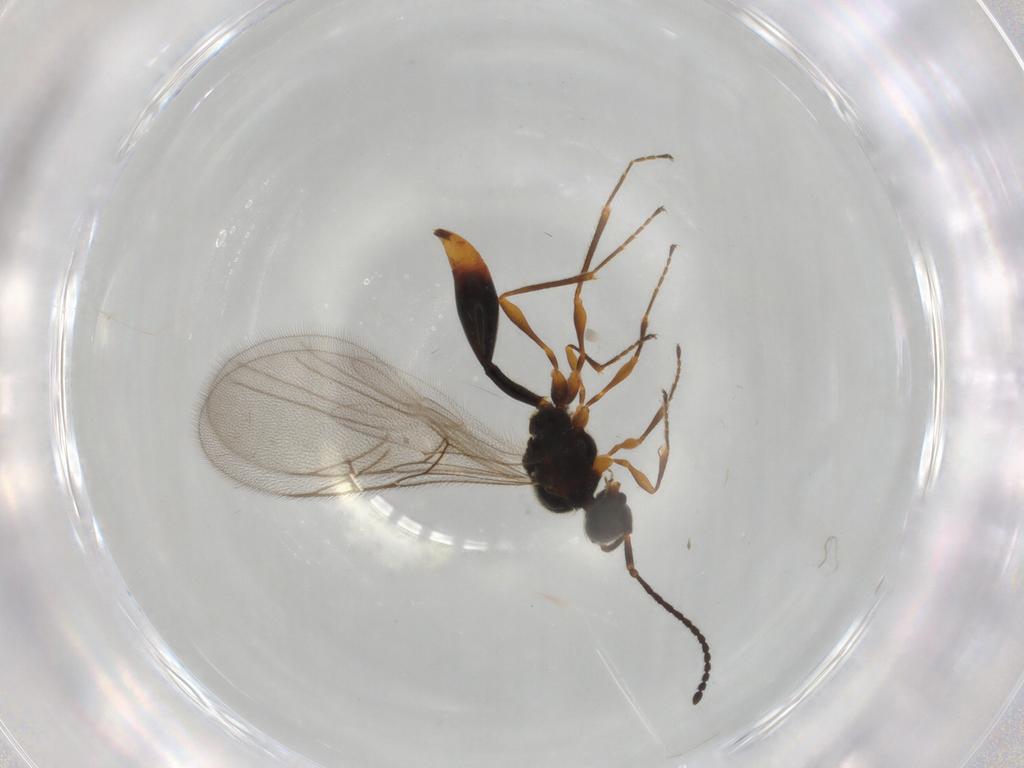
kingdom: Animalia
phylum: Arthropoda
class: Insecta
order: Hymenoptera
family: Diapriidae
